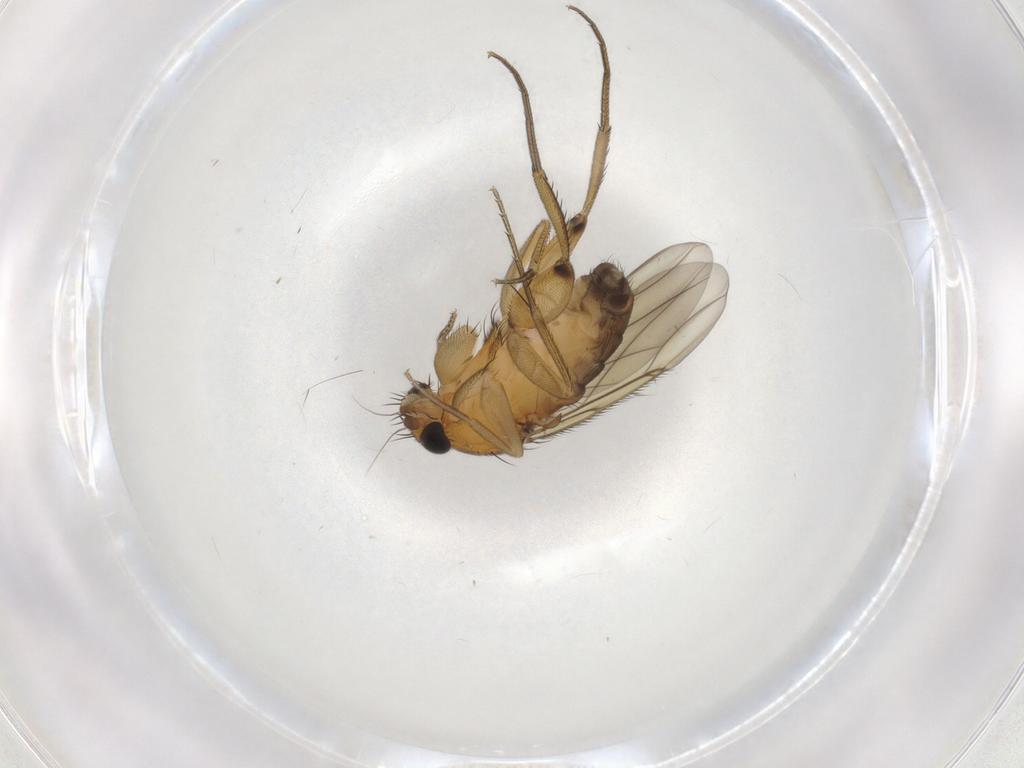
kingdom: Animalia
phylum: Arthropoda
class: Insecta
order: Diptera
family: Phoridae
